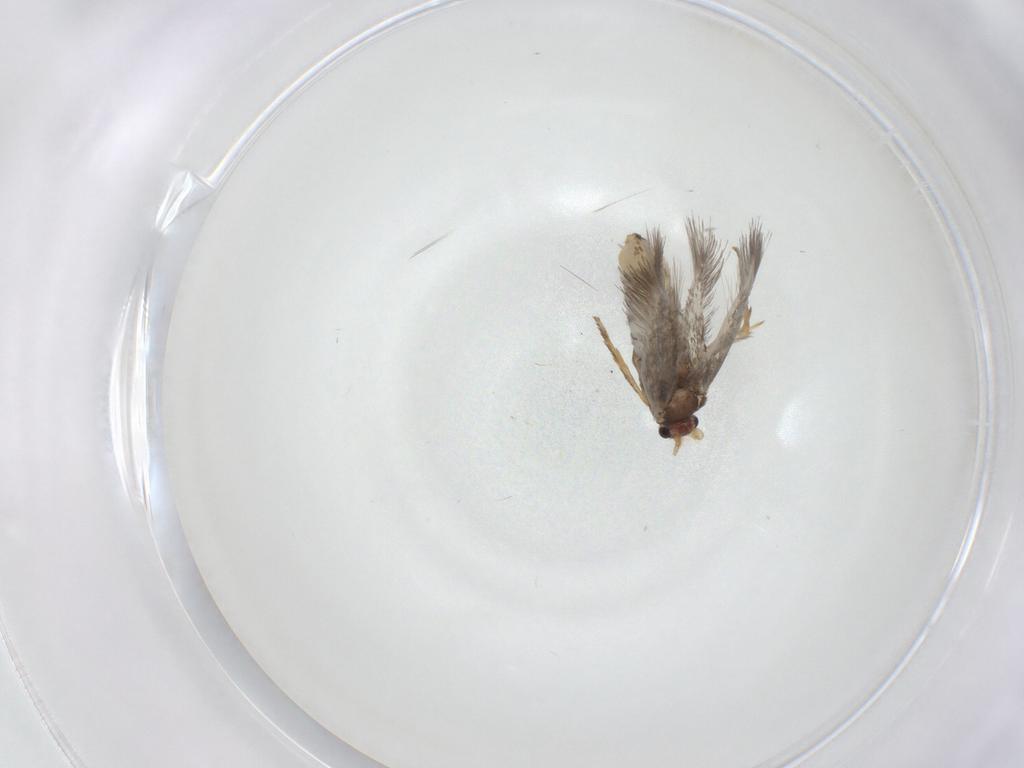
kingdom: Animalia
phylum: Arthropoda
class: Insecta
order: Lepidoptera
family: Nepticulidae
